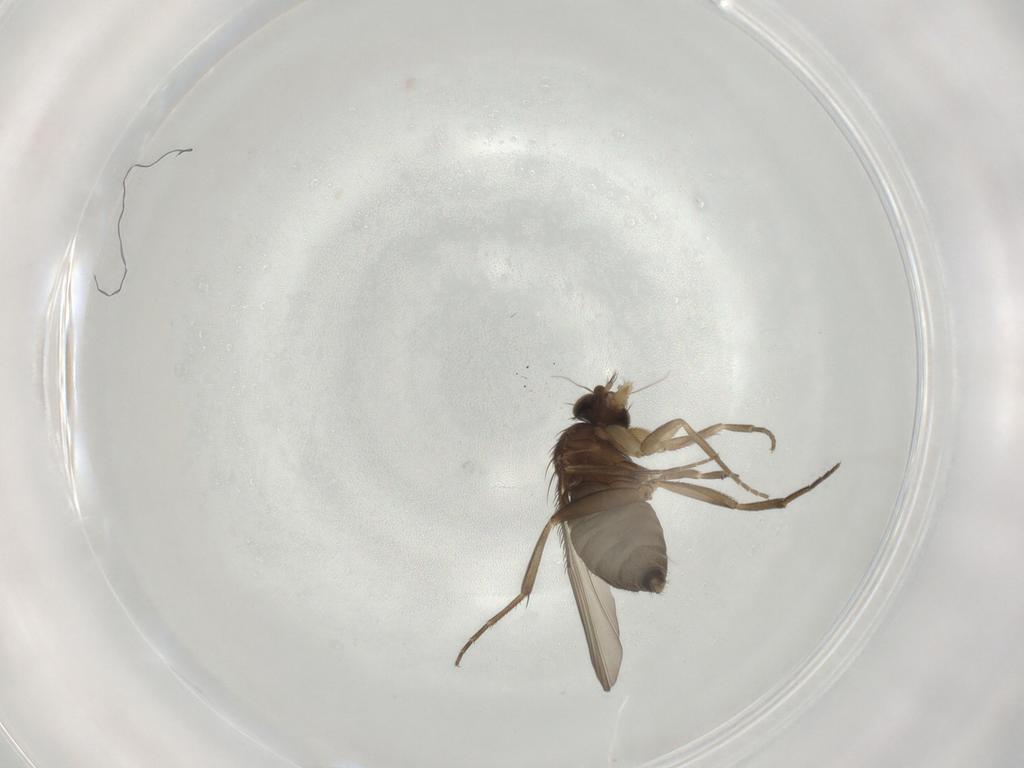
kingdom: Animalia
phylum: Arthropoda
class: Insecta
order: Diptera
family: Phoridae
